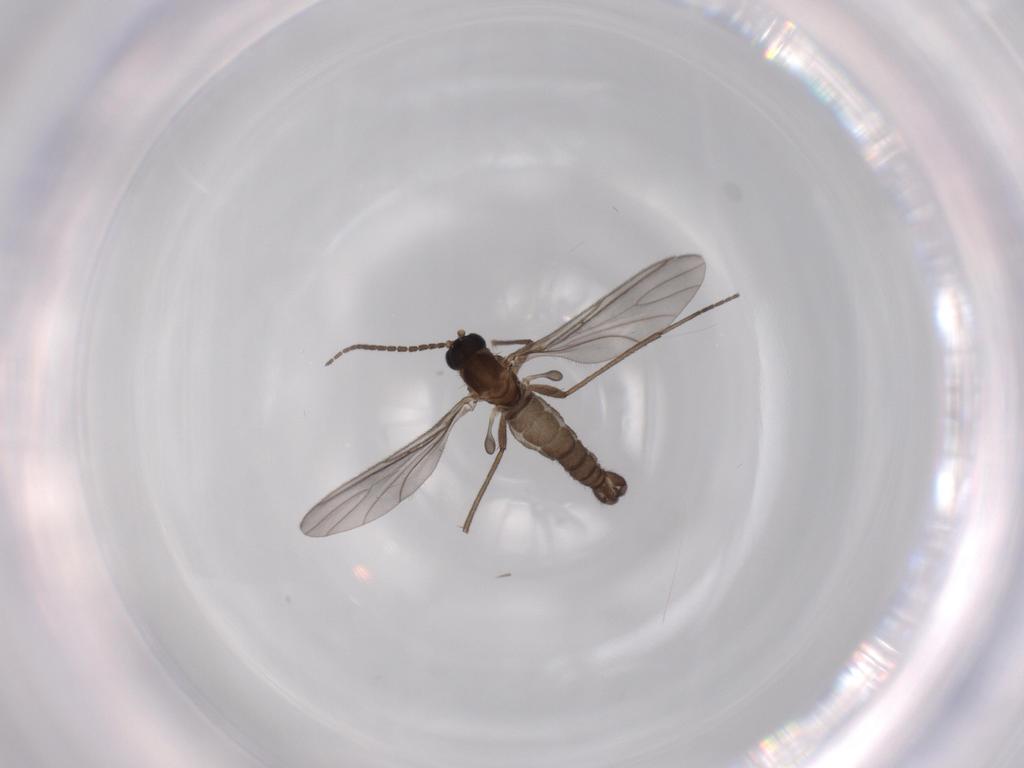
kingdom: Animalia
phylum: Arthropoda
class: Insecta
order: Diptera
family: Sciaridae
